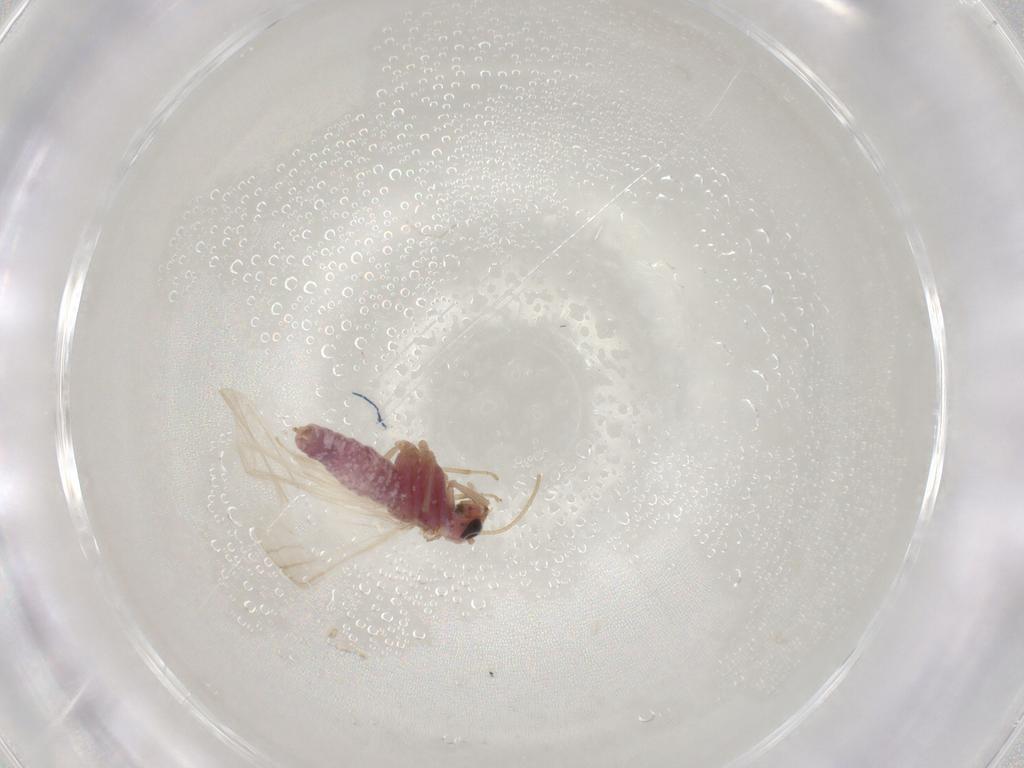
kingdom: Animalia
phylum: Arthropoda
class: Insecta
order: Neuroptera
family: Coniopterygidae
